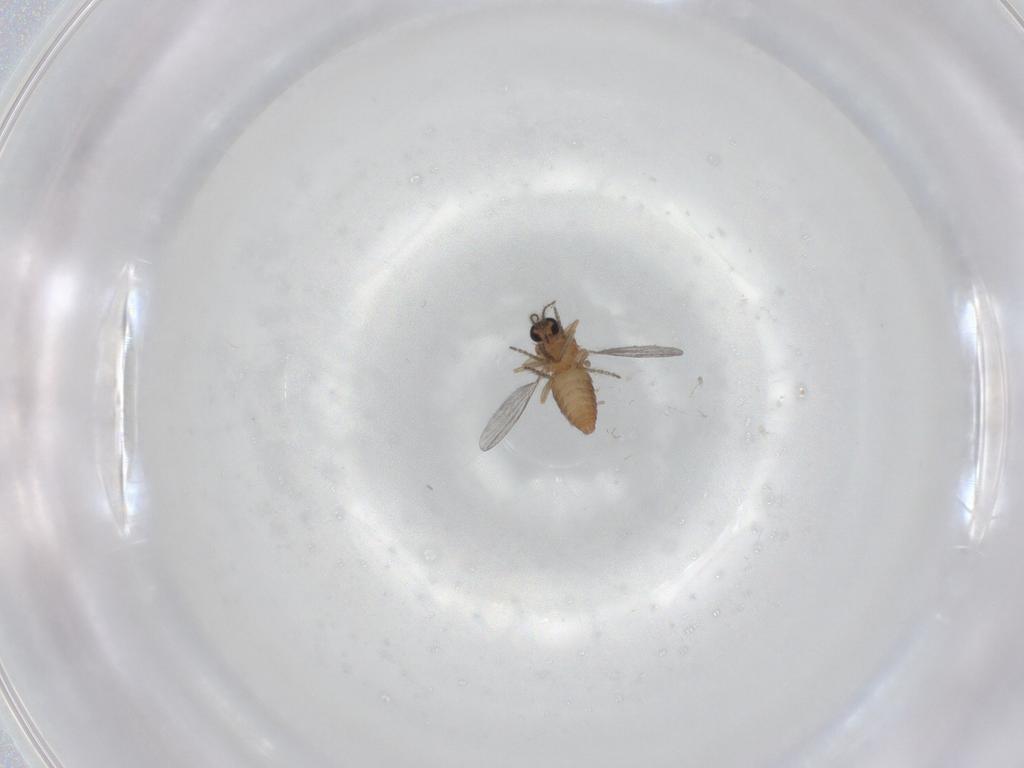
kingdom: Animalia
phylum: Arthropoda
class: Insecta
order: Diptera
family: Ceratopogonidae
